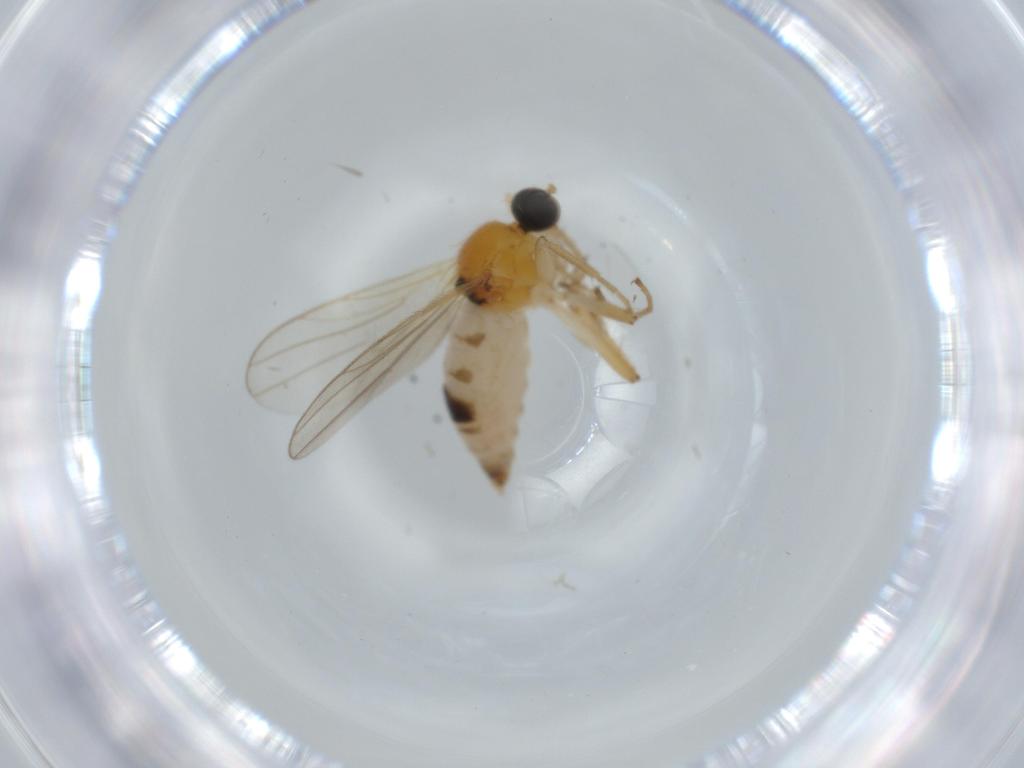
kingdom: Animalia
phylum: Arthropoda
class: Insecta
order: Diptera
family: Hybotidae
